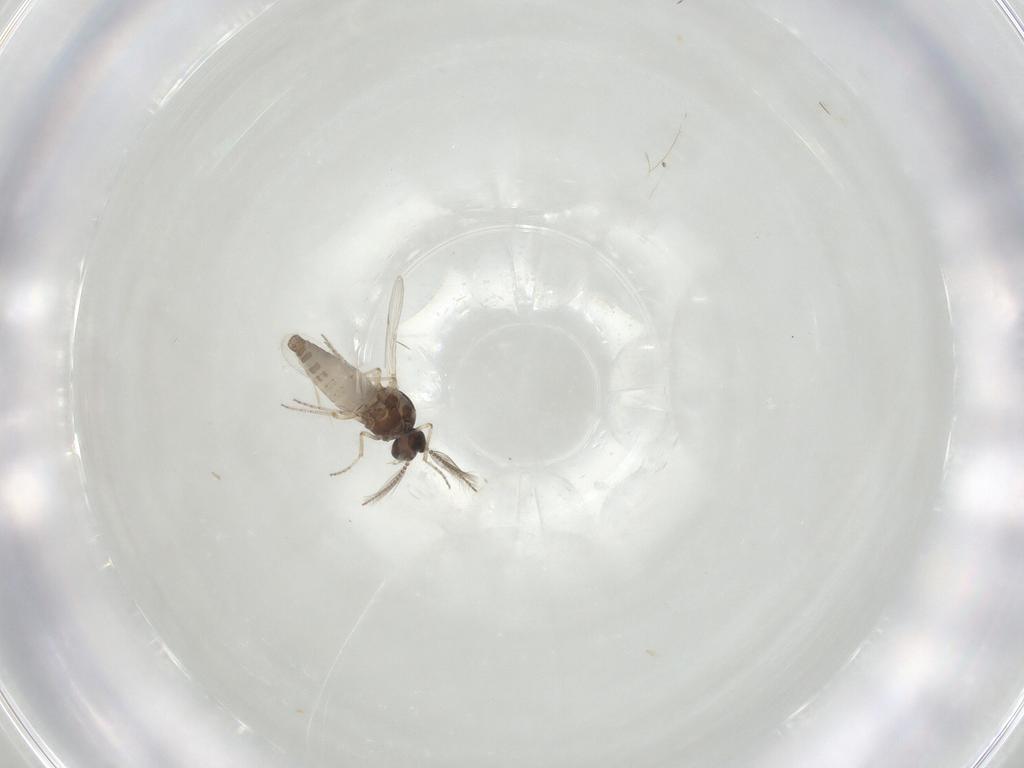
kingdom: Animalia
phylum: Arthropoda
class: Insecta
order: Diptera
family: Ceratopogonidae
